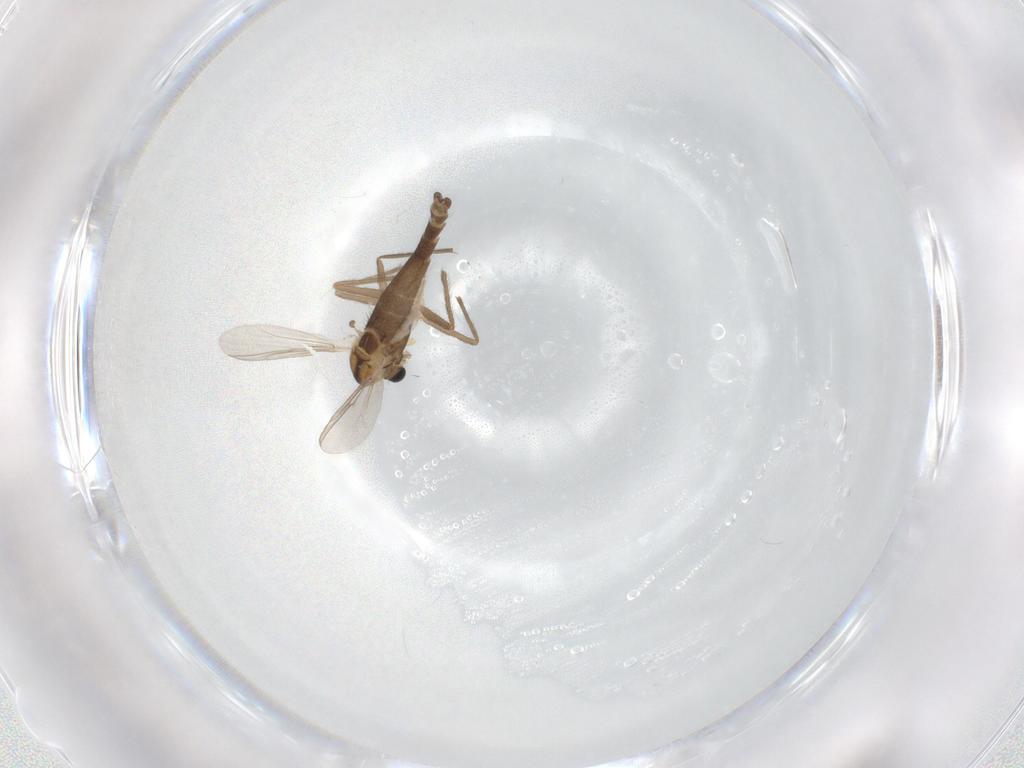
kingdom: Animalia
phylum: Arthropoda
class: Insecta
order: Diptera
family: Chironomidae
